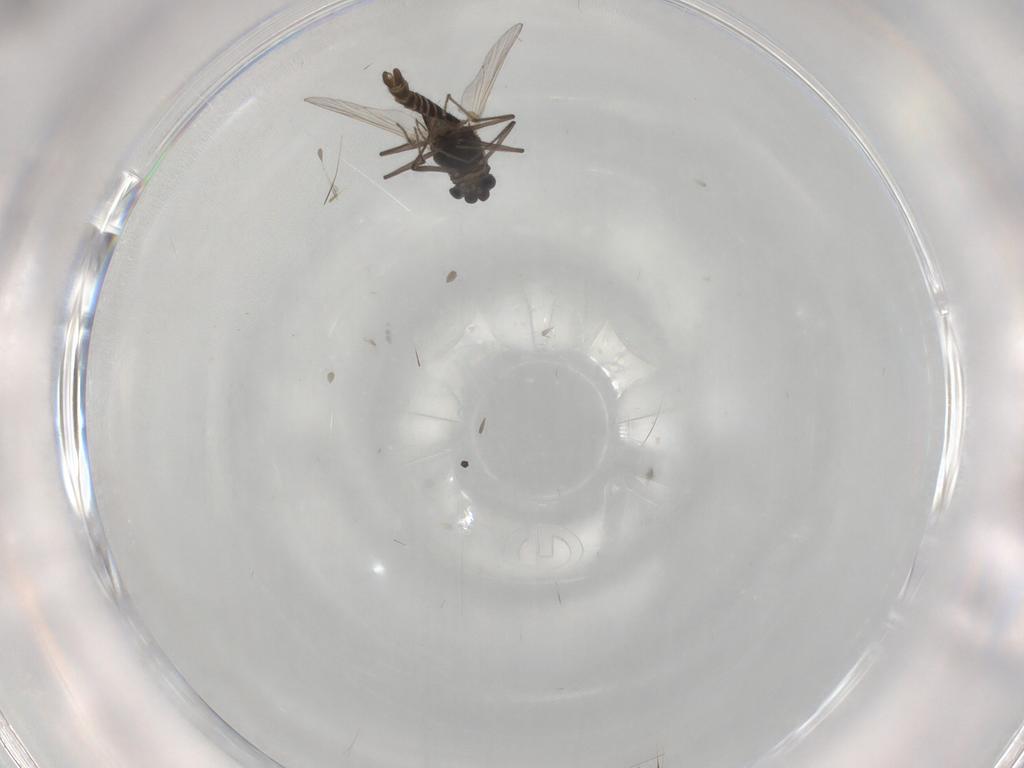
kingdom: Animalia
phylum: Arthropoda
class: Insecta
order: Diptera
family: Chironomidae
